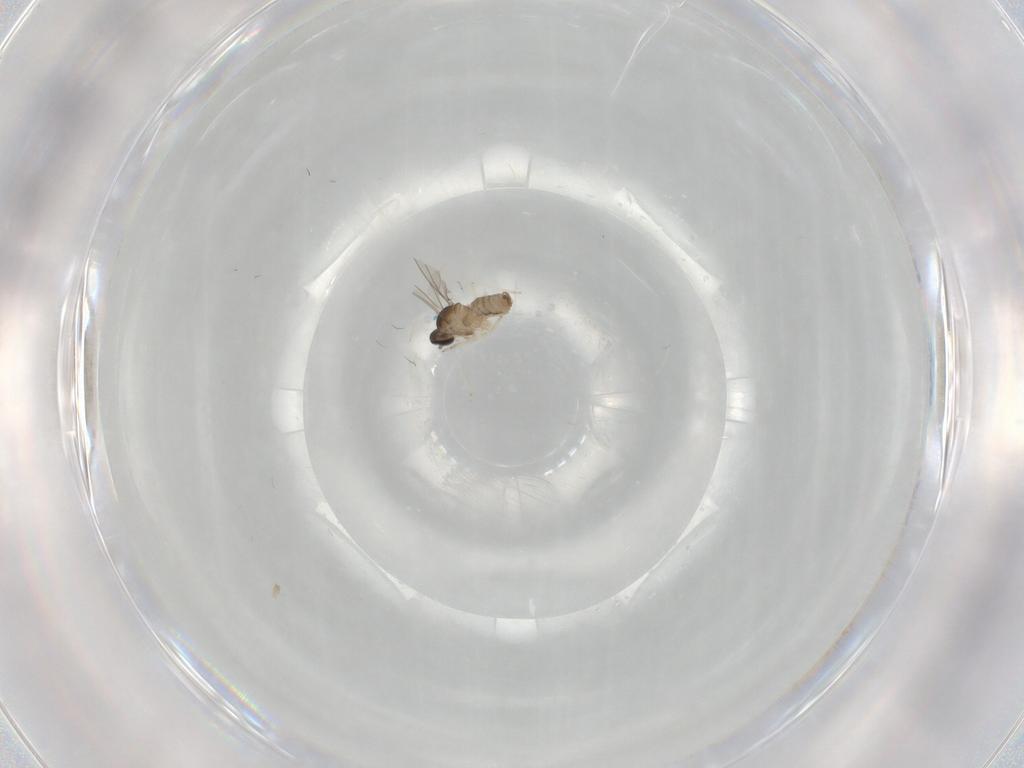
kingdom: Animalia
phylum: Arthropoda
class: Insecta
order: Diptera
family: Cecidomyiidae
